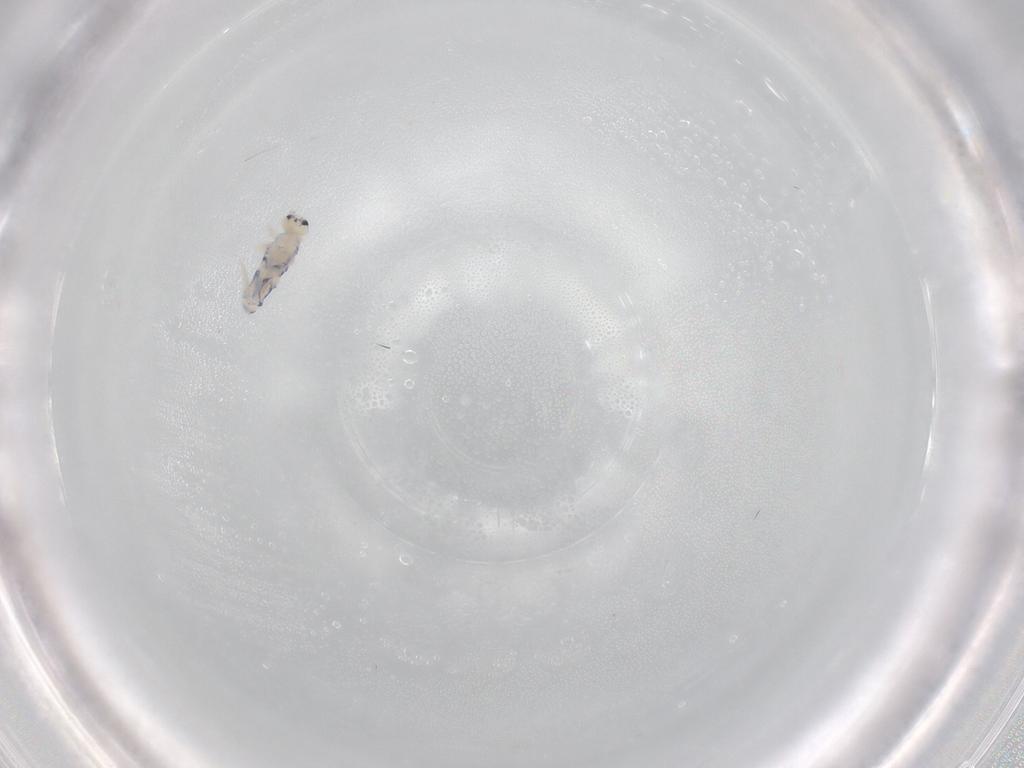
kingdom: Animalia
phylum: Arthropoda
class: Collembola
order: Entomobryomorpha
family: Entomobryidae
